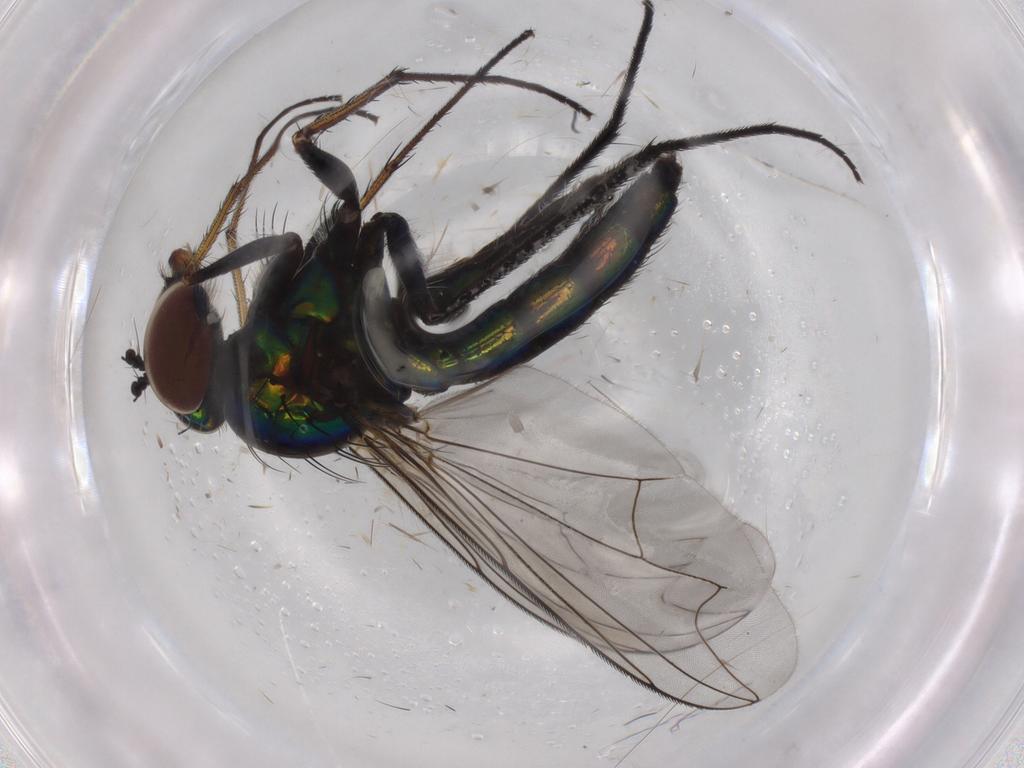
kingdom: Animalia
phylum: Arthropoda
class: Insecta
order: Diptera
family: Dolichopodidae
